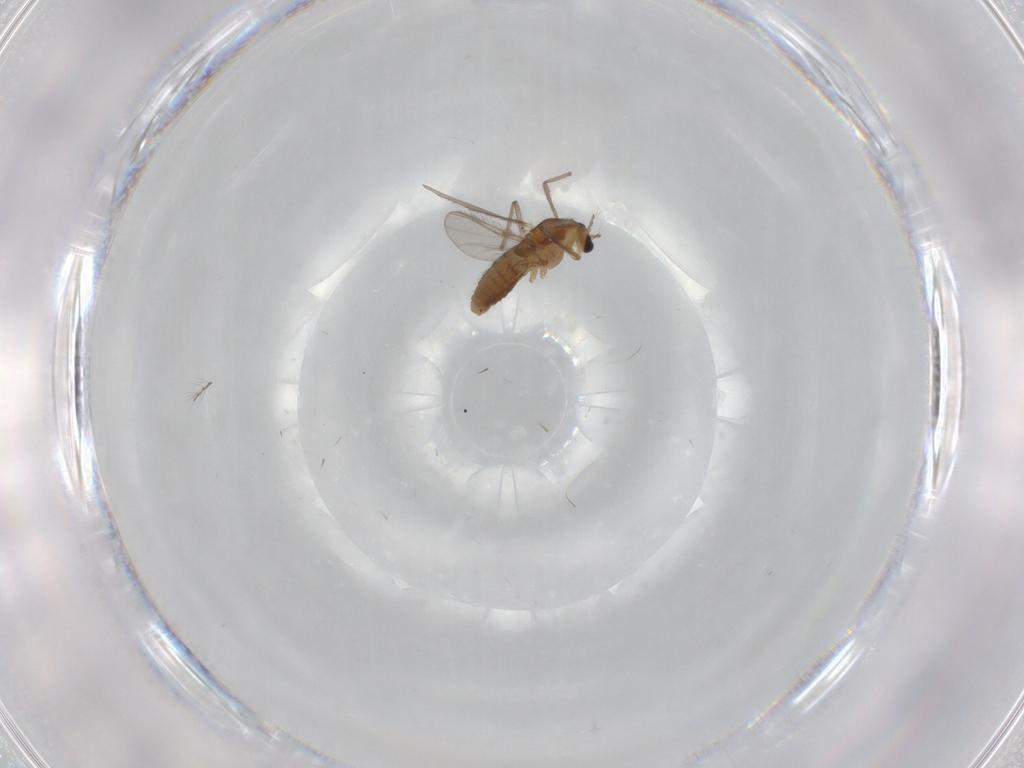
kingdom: Animalia
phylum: Arthropoda
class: Insecta
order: Diptera
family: Chironomidae
